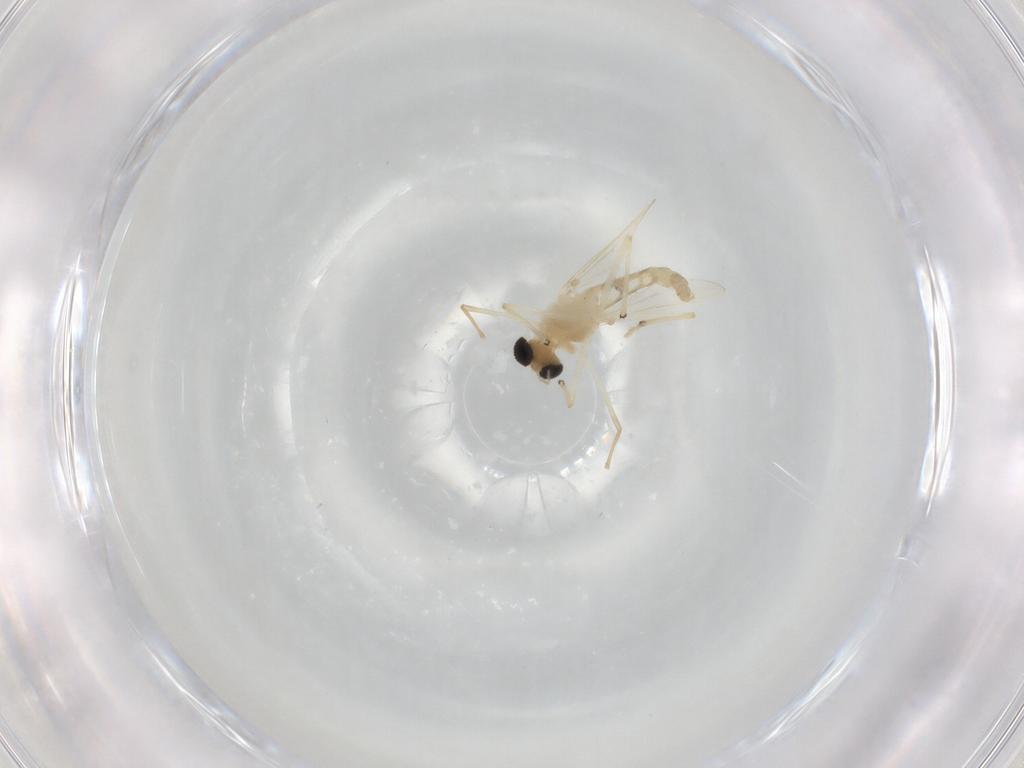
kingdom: Animalia
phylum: Arthropoda
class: Insecta
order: Diptera
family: Chironomidae
